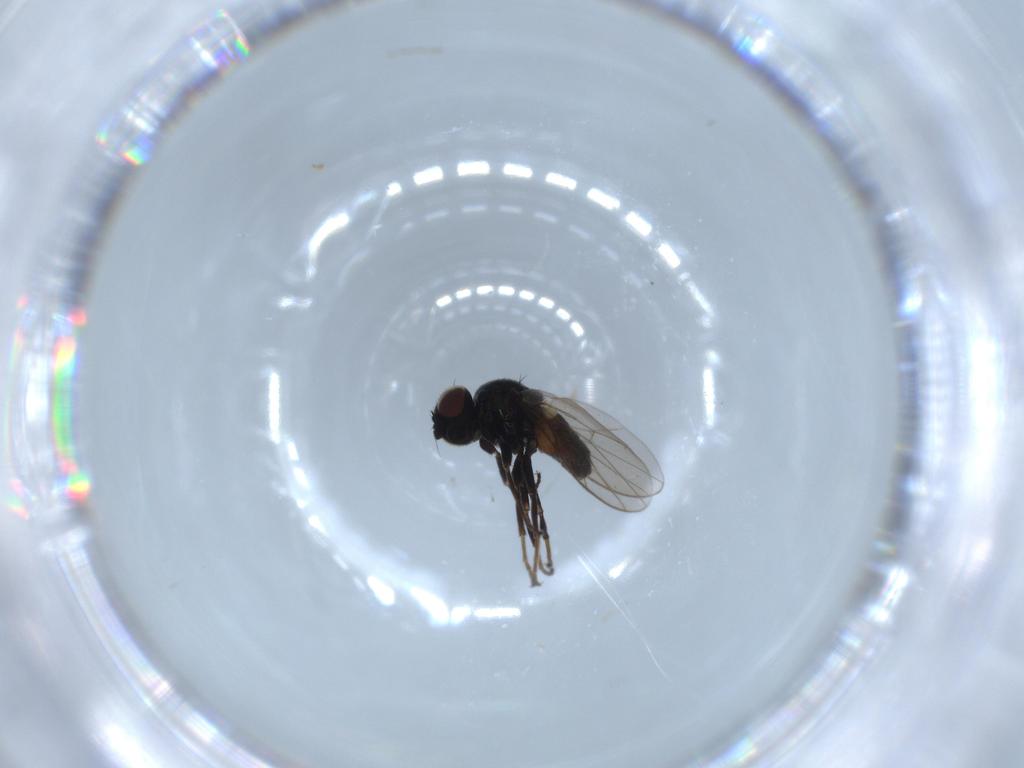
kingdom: Animalia
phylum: Arthropoda
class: Insecta
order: Diptera
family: Chloropidae
